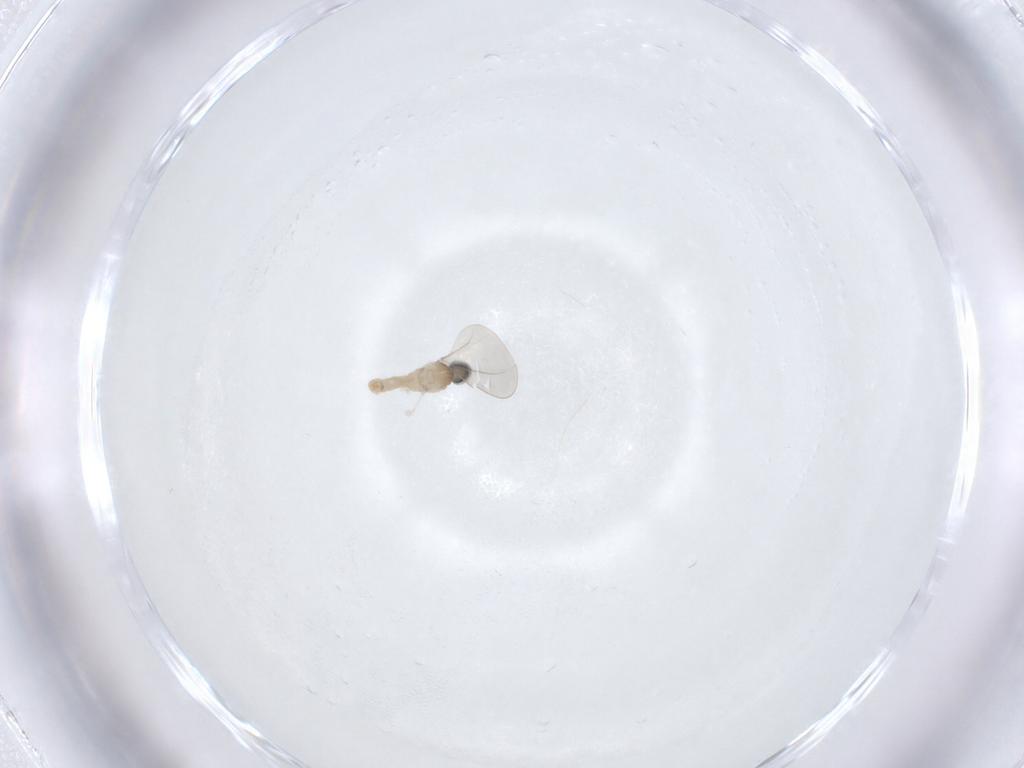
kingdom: Animalia
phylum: Arthropoda
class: Insecta
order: Diptera
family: Cecidomyiidae
